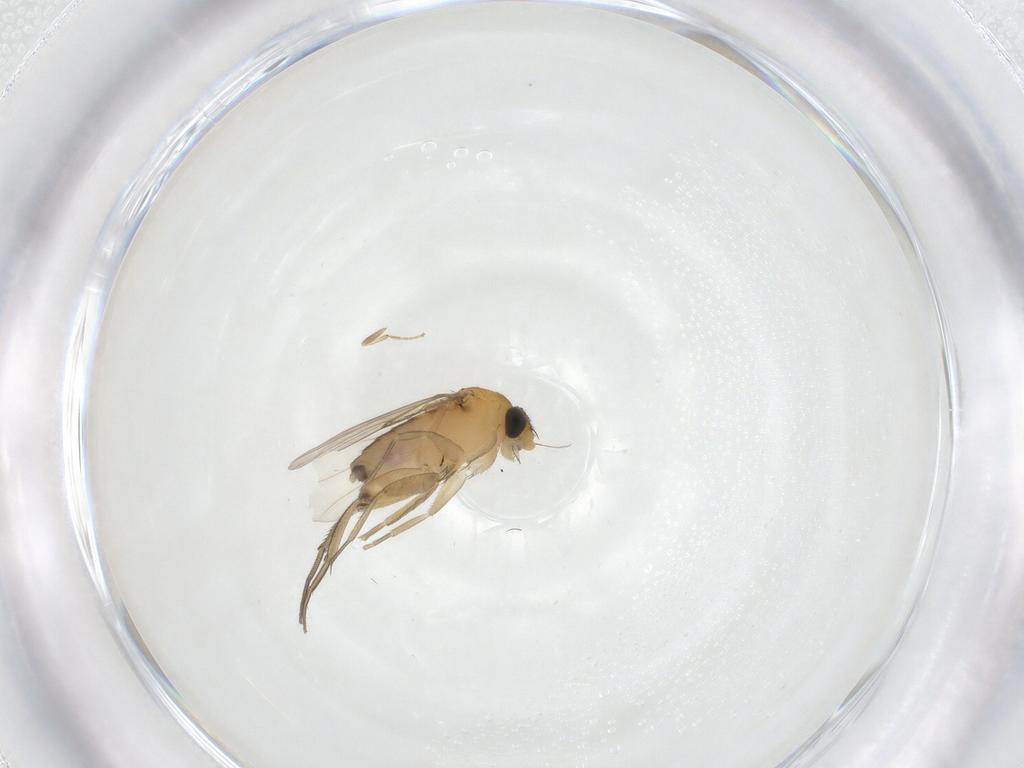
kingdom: Animalia
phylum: Arthropoda
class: Insecta
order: Diptera
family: Phoridae
